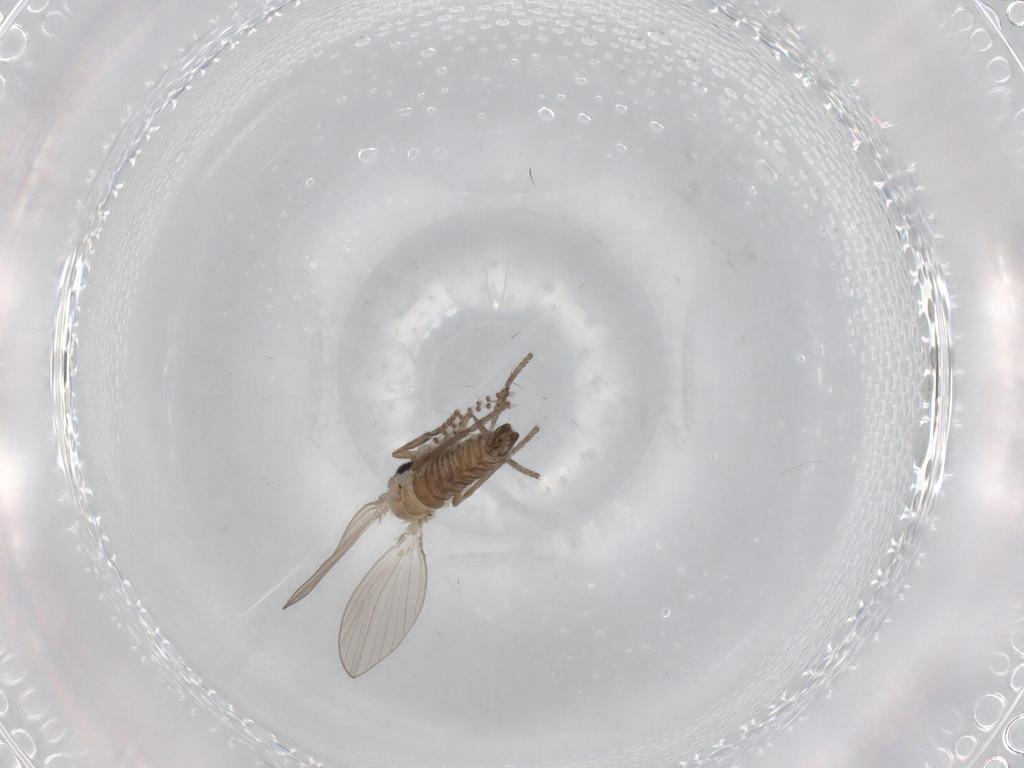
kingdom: Animalia
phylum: Arthropoda
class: Insecta
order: Diptera
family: Psychodidae
